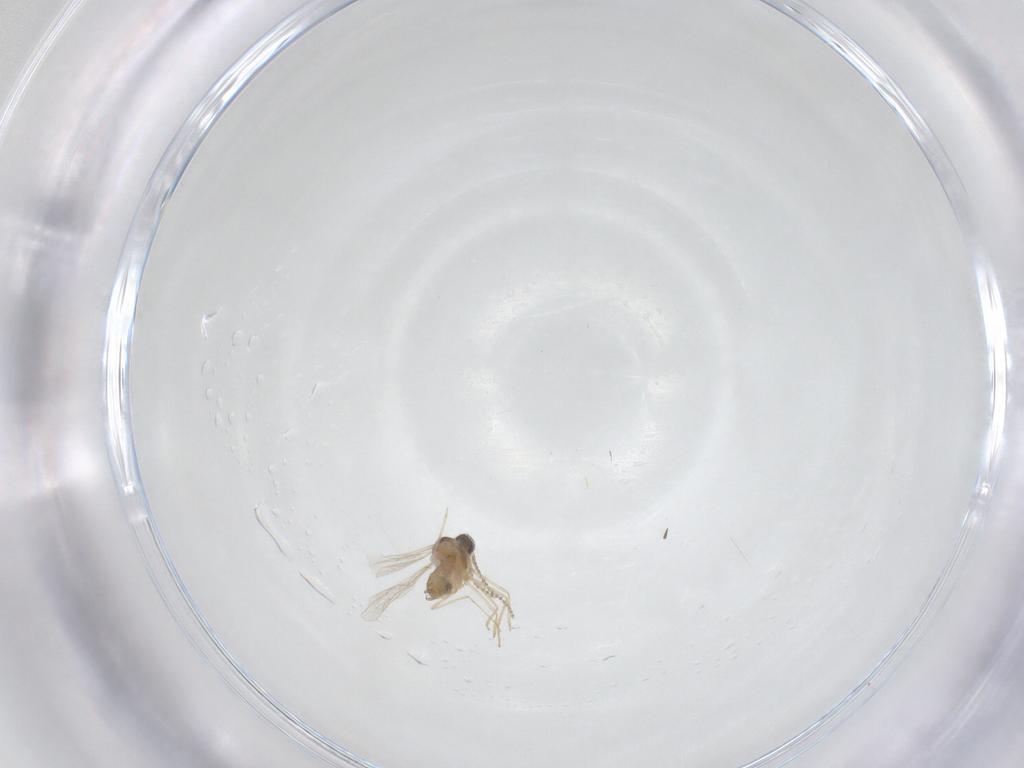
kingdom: Animalia
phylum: Arthropoda
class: Insecta
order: Diptera
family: Cecidomyiidae
